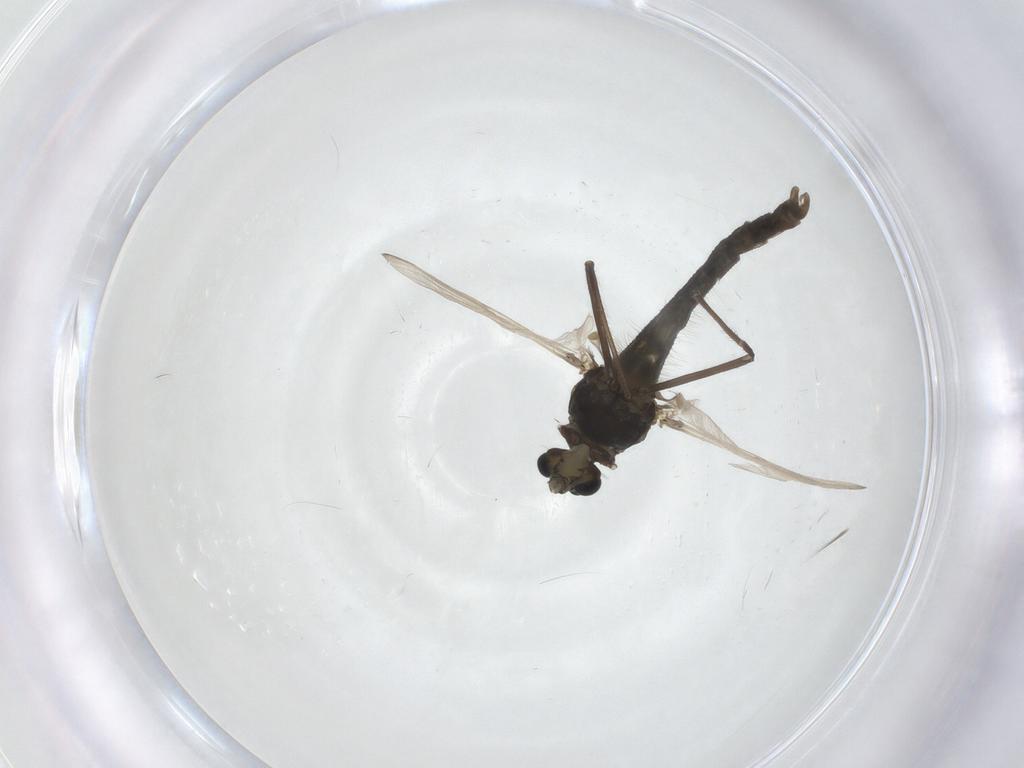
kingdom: Animalia
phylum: Arthropoda
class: Insecta
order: Diptera
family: Chironomidae
